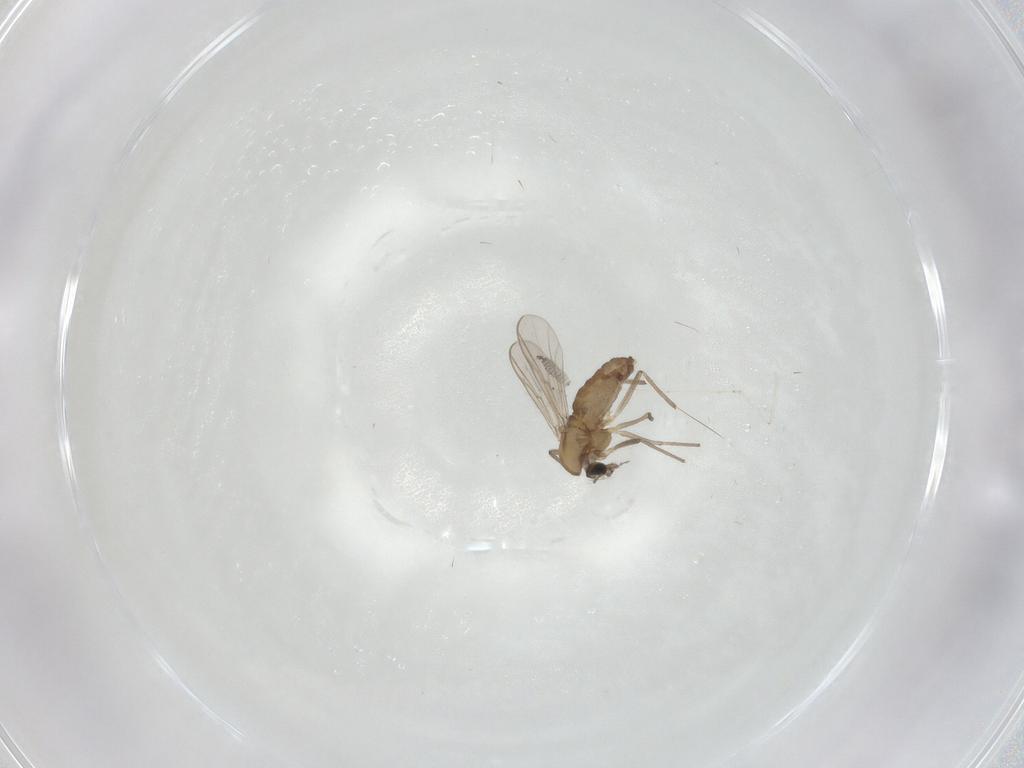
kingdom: Animalia
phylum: Arthropoda
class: Insecta
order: Diptera
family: Chironomidae
